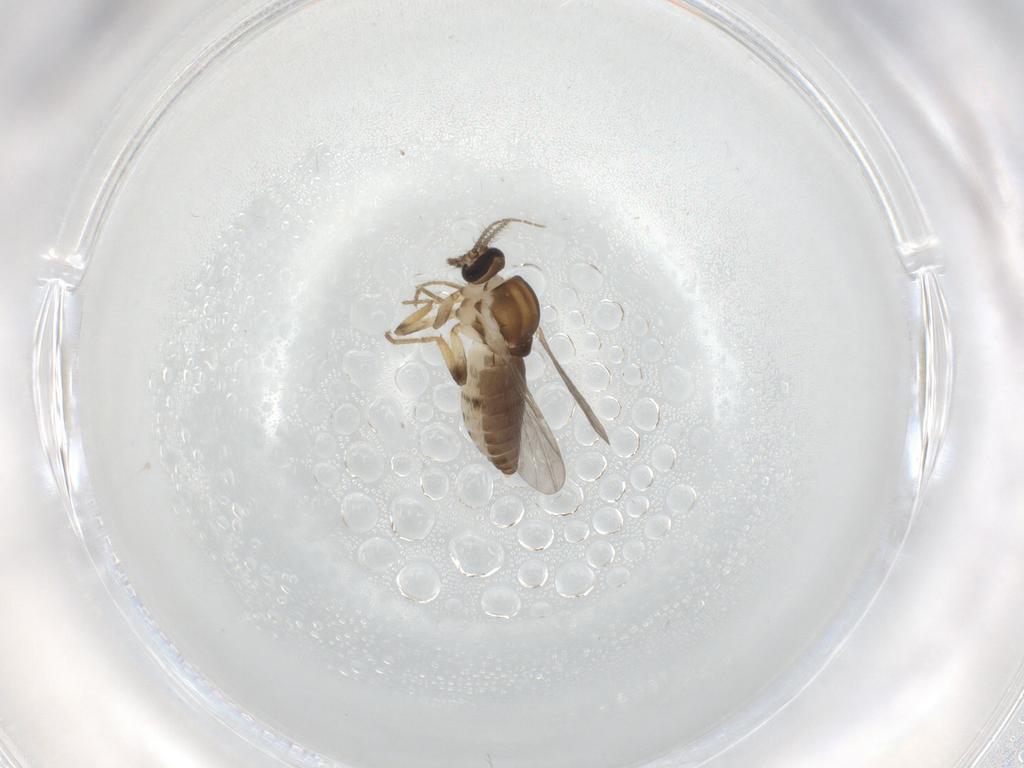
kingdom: Animalia
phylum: Arthropoda
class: Insecta
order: Diptera
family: Ceratopogonidae
